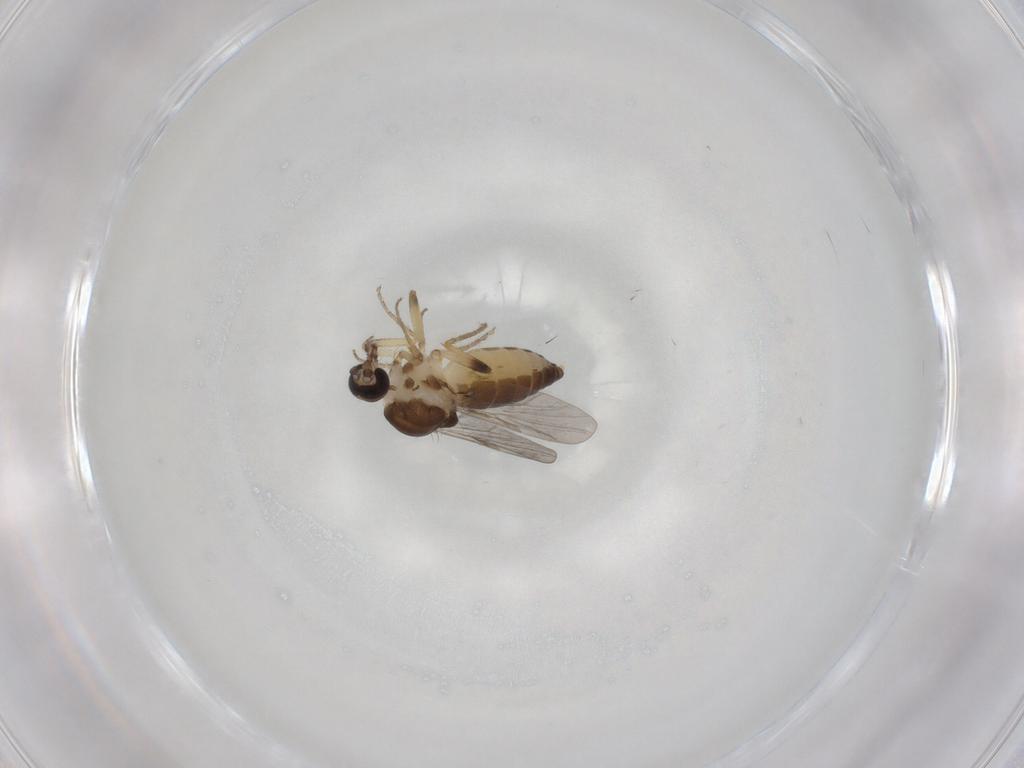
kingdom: Animalia
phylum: Arthropoda
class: Insecta
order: Diptera
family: Ceratopogonidae
